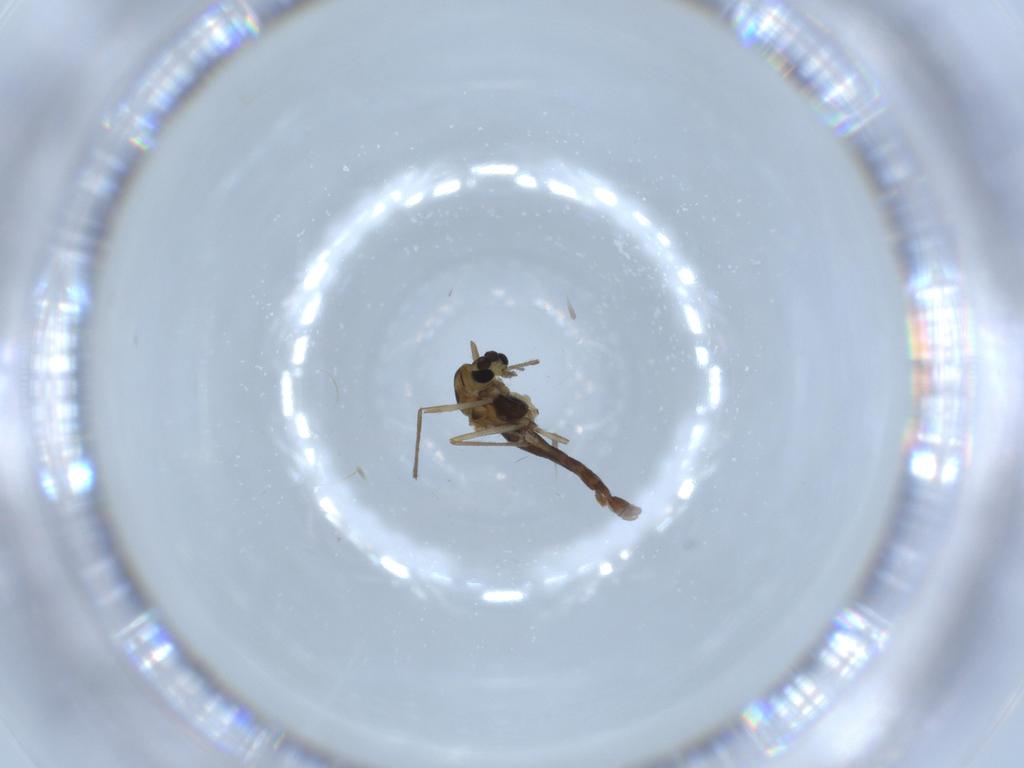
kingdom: Animalia
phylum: Arthropoda
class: Insecta
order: Diptera
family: Chironomidae
